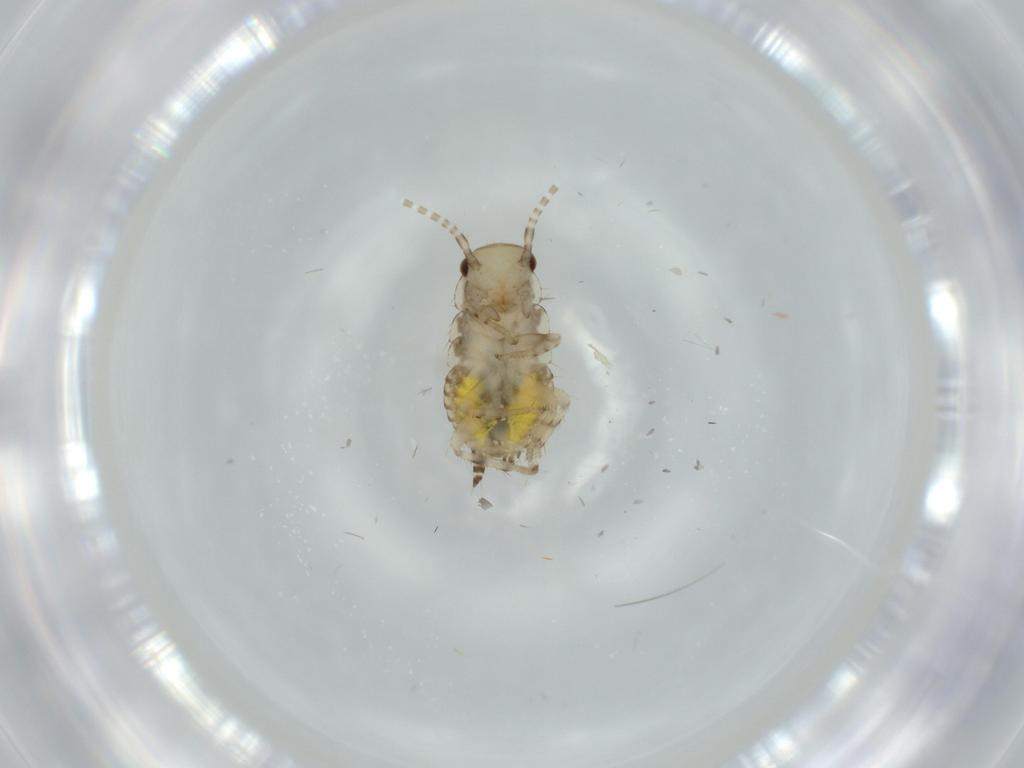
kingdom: Animalia
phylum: Arthropoda
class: Insecta
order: Blattodea
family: Ectobiidae
